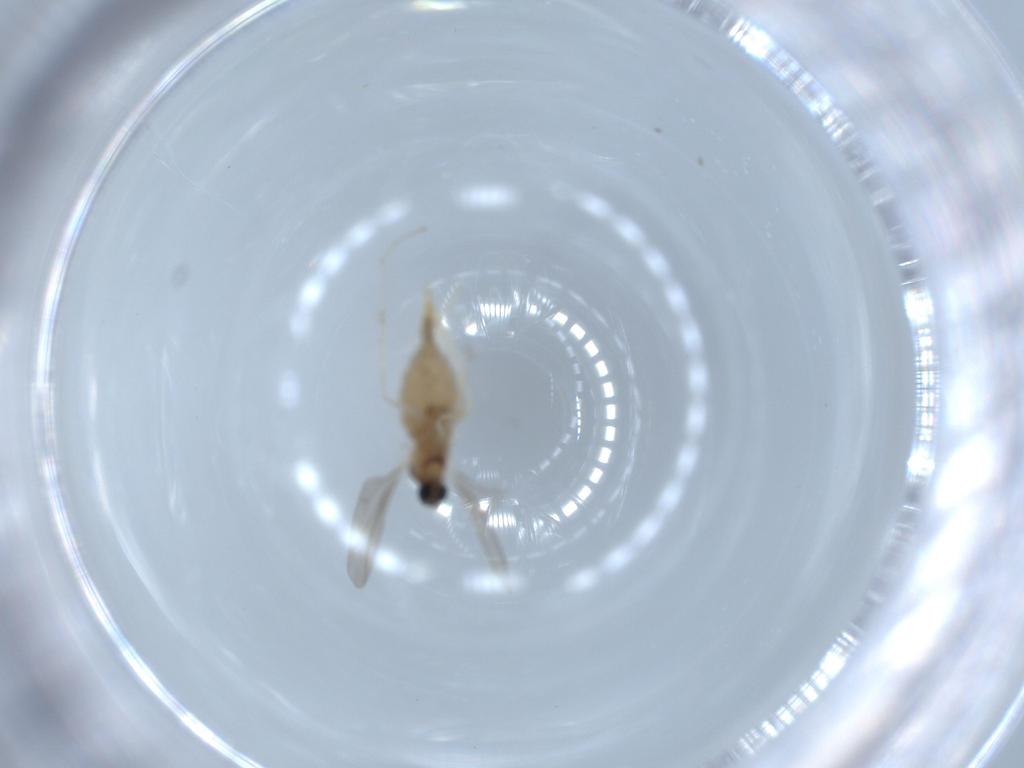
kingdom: Animalia
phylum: Arthropoda
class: Insecta
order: Diptera
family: Cecidomyiidae
